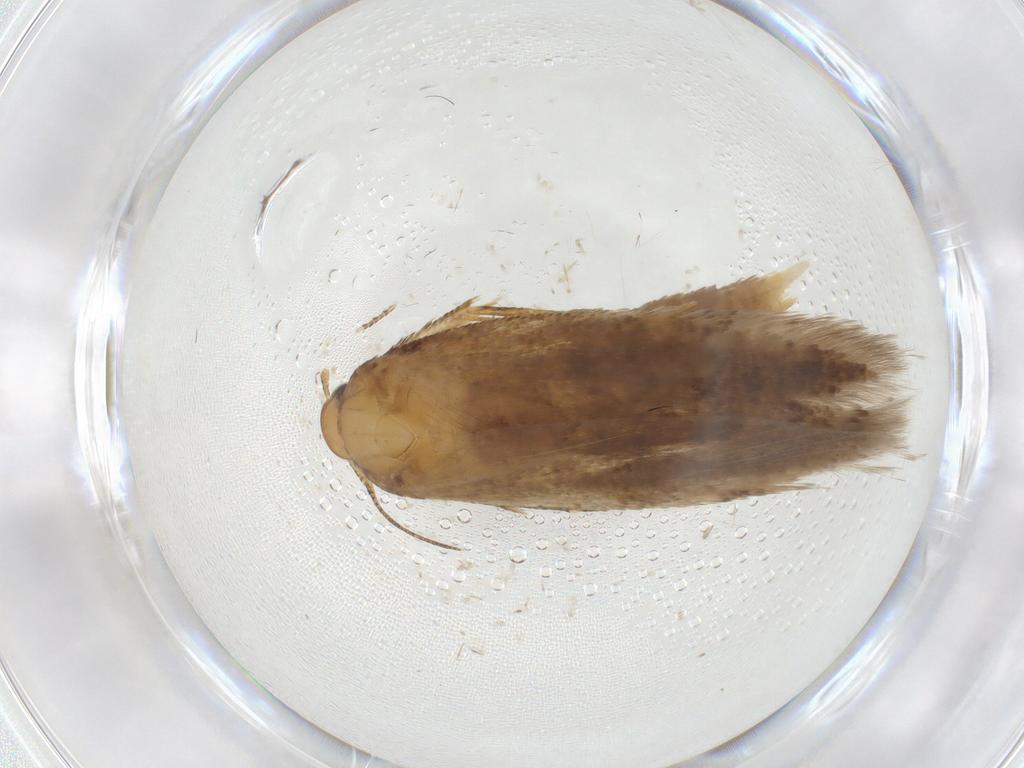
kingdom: Animalia
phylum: Arthropoda
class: Insecta
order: Lepidoptera
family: Gelechiidae
